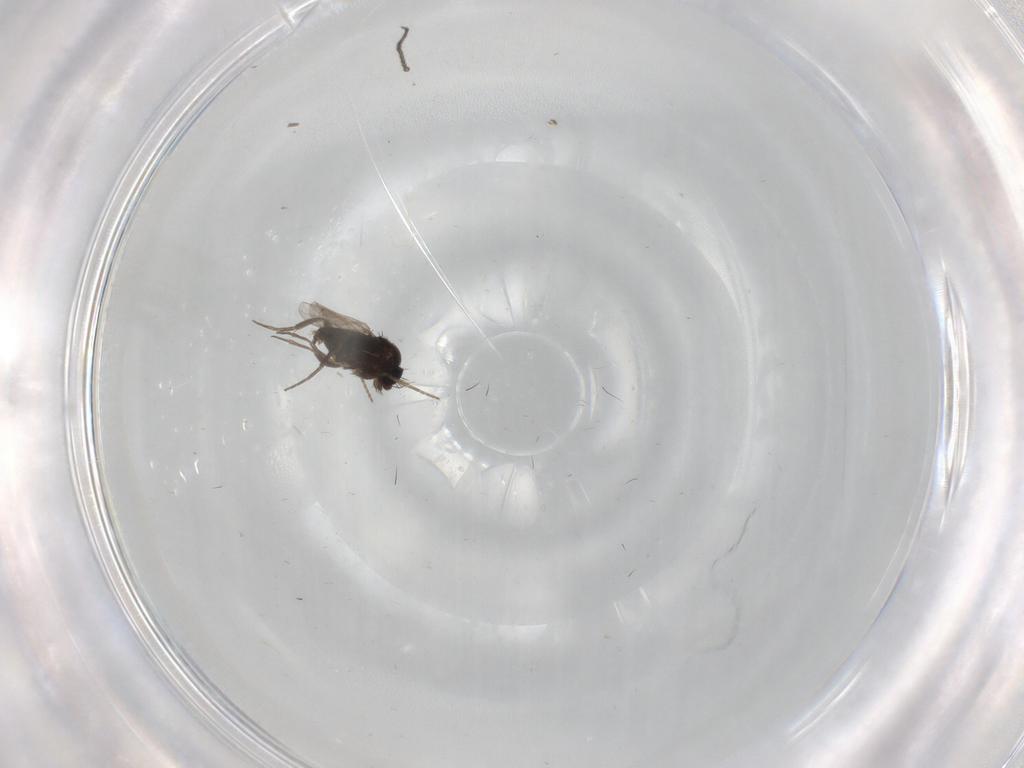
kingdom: Animalia
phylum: Arthropoda
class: Insecta
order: Diptera
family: Phoridae
